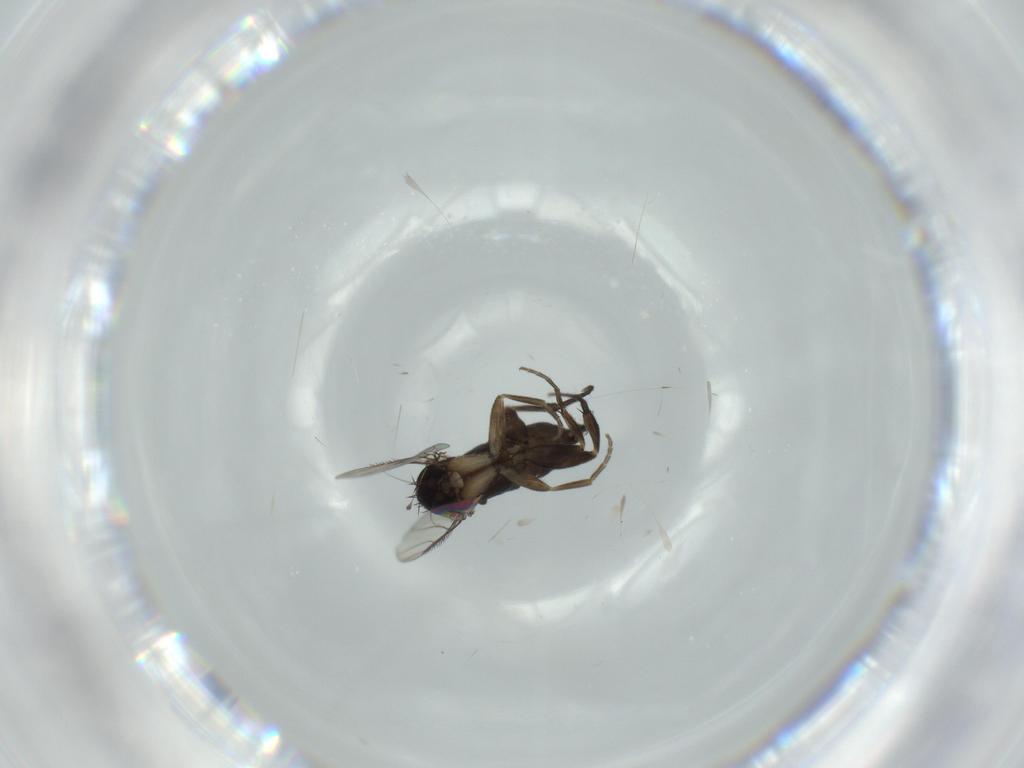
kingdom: Animalia
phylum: Arthropoda
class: Insecta
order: Diptera
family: Phoridae
